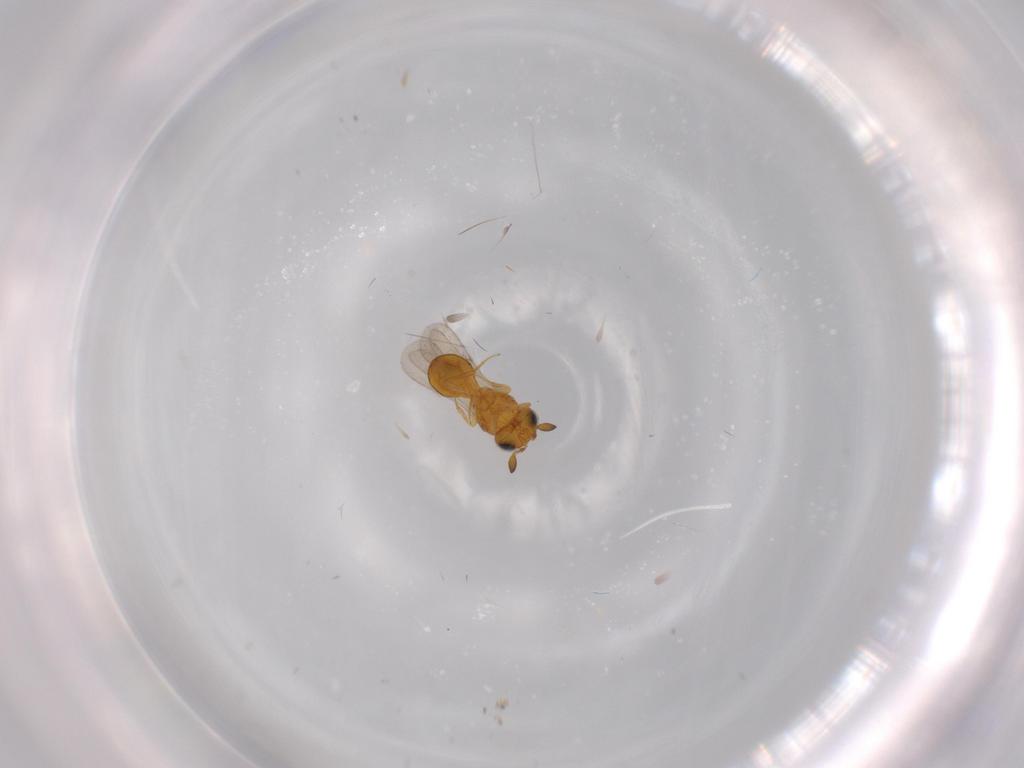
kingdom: Animalia
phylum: Arthropoda
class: Insecta
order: Hymenoptera
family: Scelionidae
